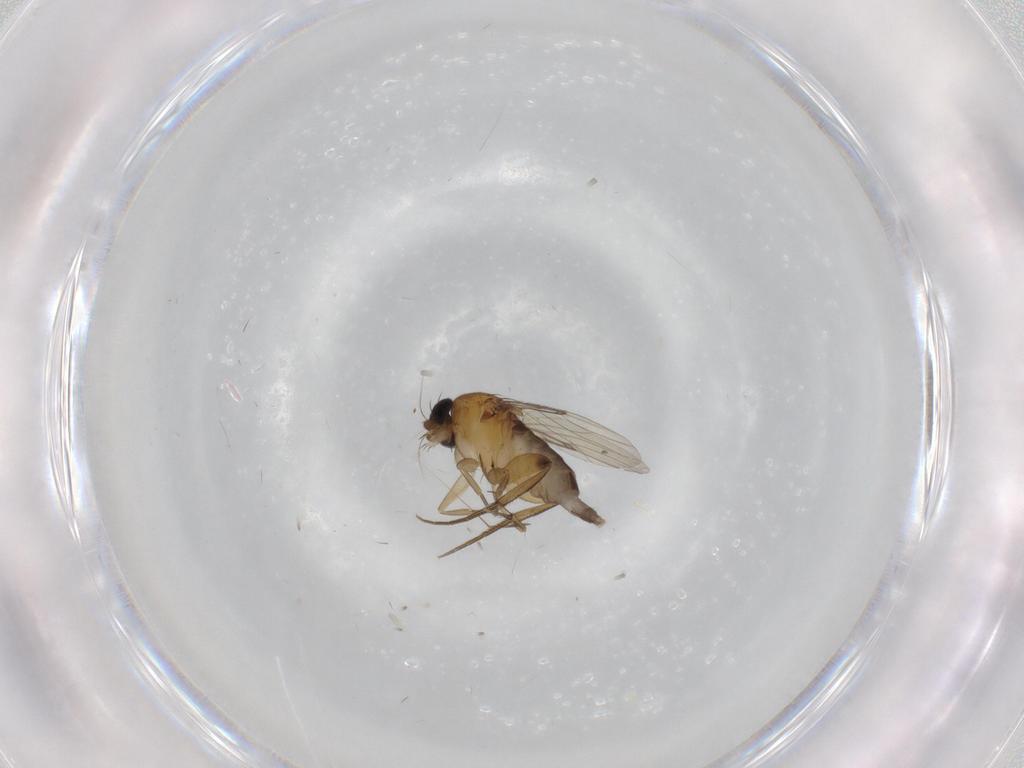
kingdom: Animalia
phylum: Arthropoda
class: Insecta
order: Diptera
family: Phoridae
